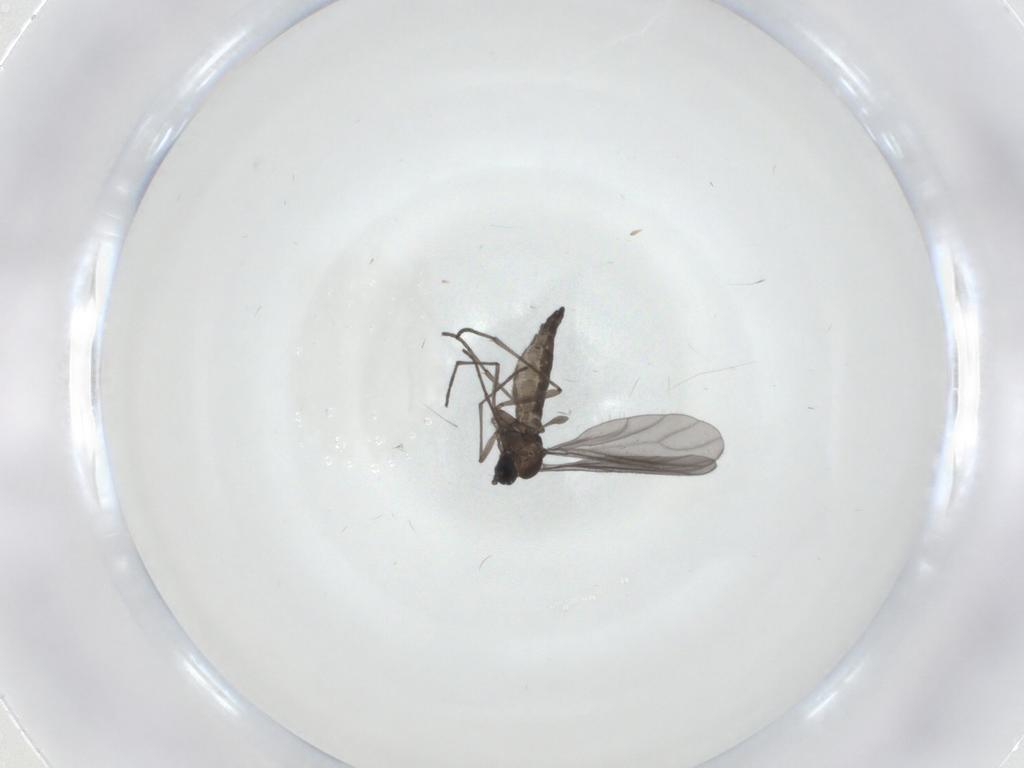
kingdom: Animalia
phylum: Arthropoda
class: Insecta
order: Diptera
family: Sciaridae
